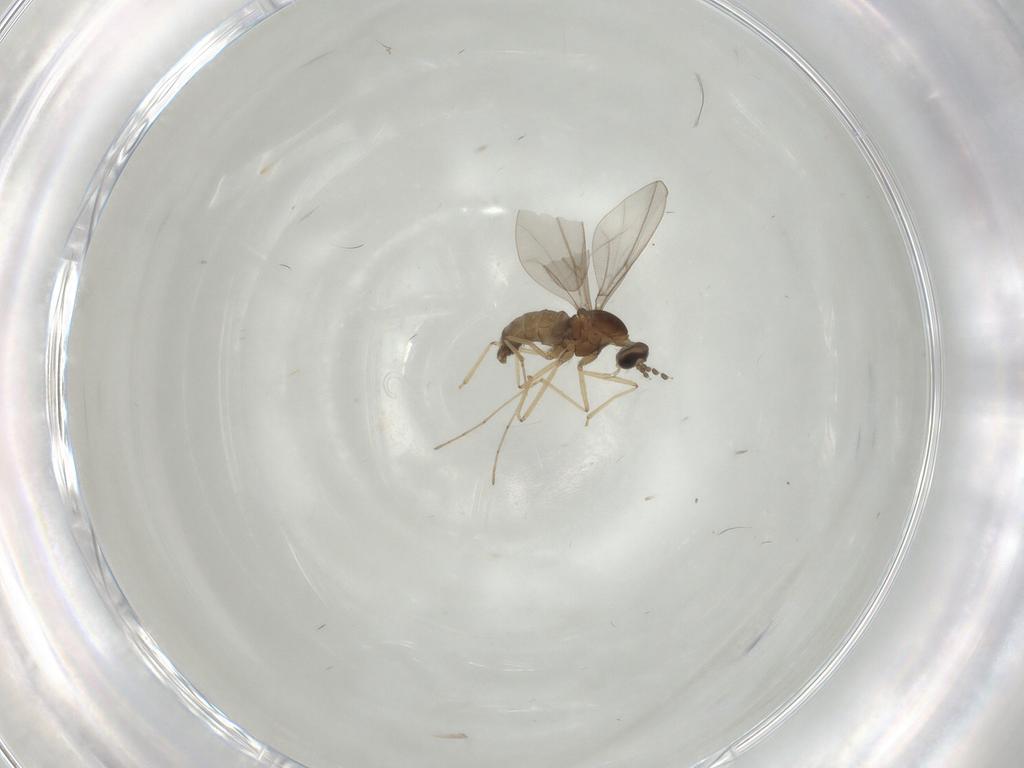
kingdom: Animalia
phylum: Arthropoda
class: Insecta
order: Diptera
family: Cecidomyiidae
